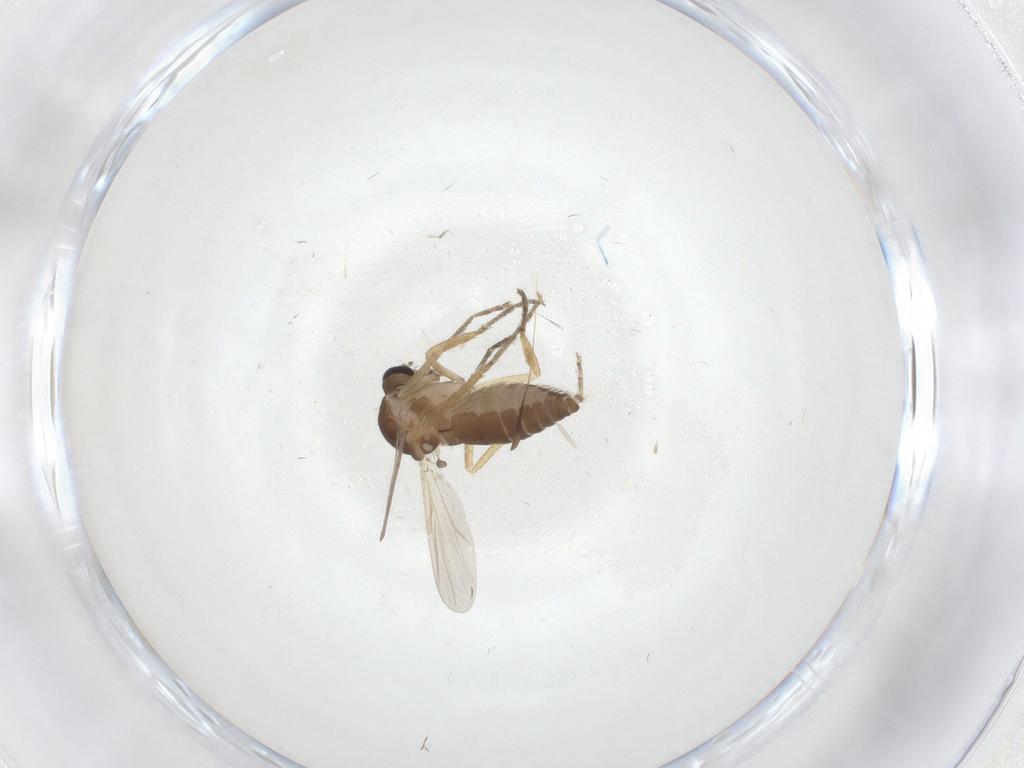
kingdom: Animalia
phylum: Arthropoda
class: Insecta
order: Diptera
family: Ceratopogonidae
